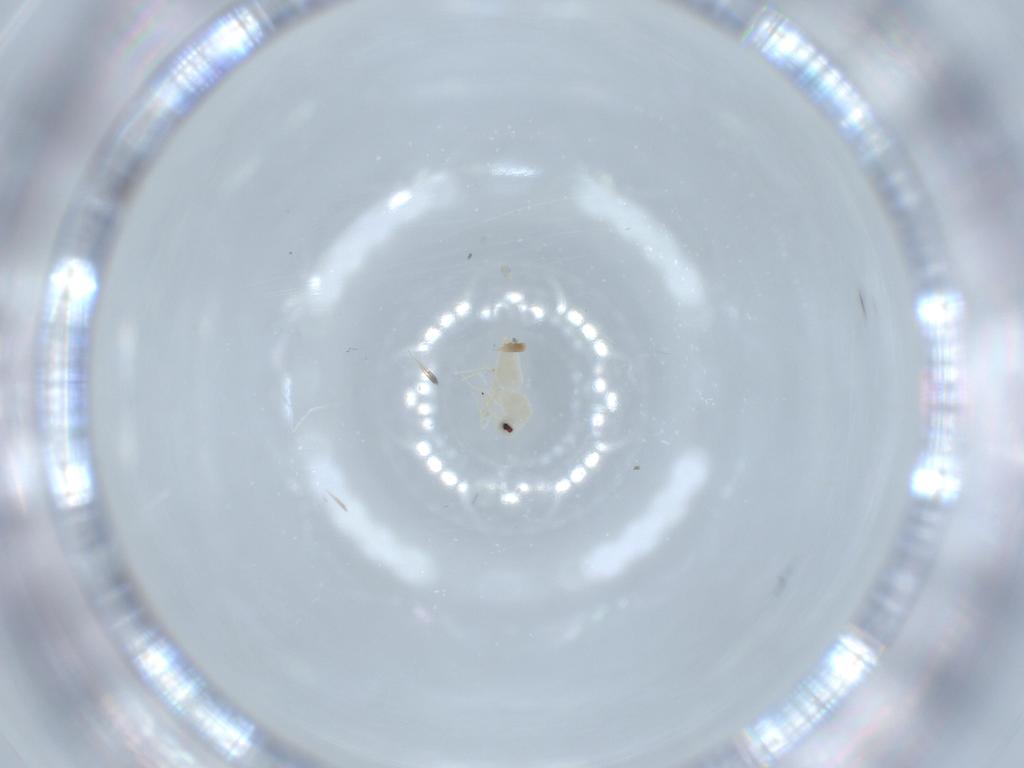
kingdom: Animalia
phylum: Arthropoda
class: Insecta
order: Hemiptera
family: Aleyrodidae
